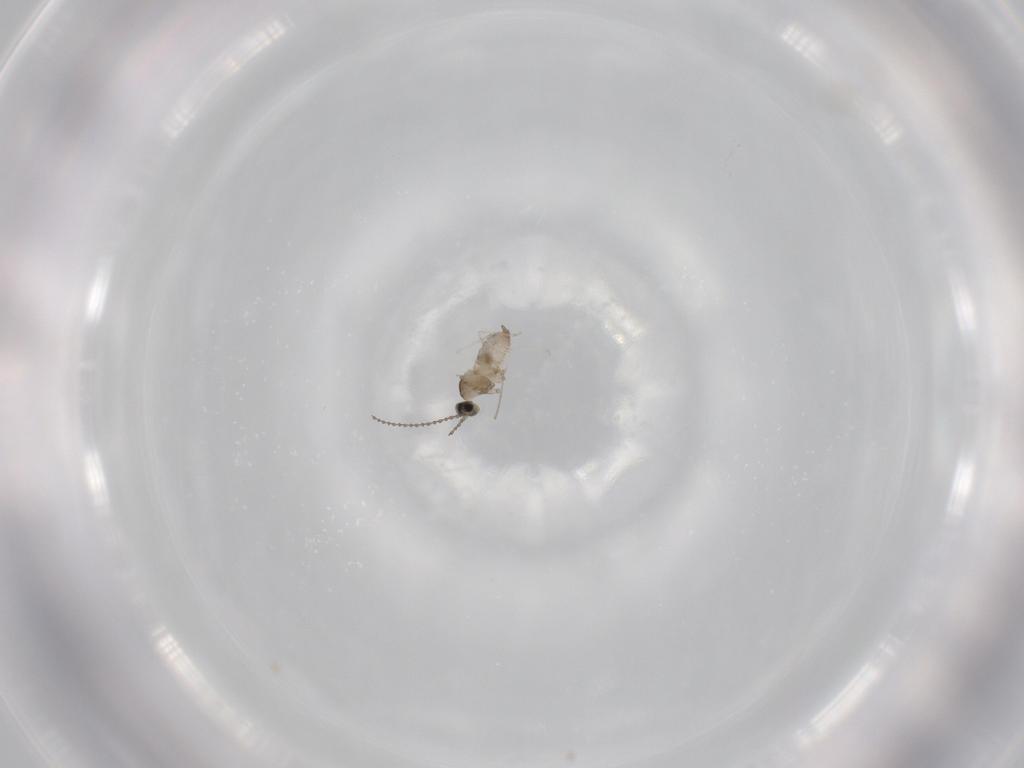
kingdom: Animalia
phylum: Arthropoda
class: Insecta
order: Diptera
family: Cecidomyiidae
